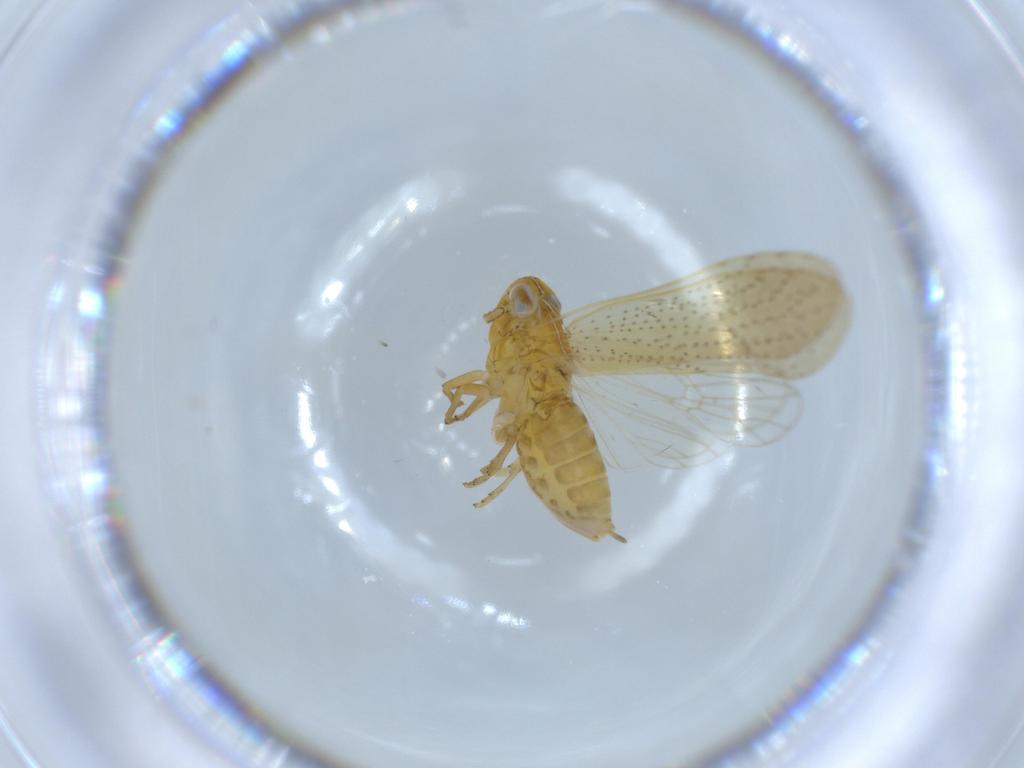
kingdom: Animalia
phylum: Arthropoda
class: Insecta
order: Hemiptera
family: Delphacidae
